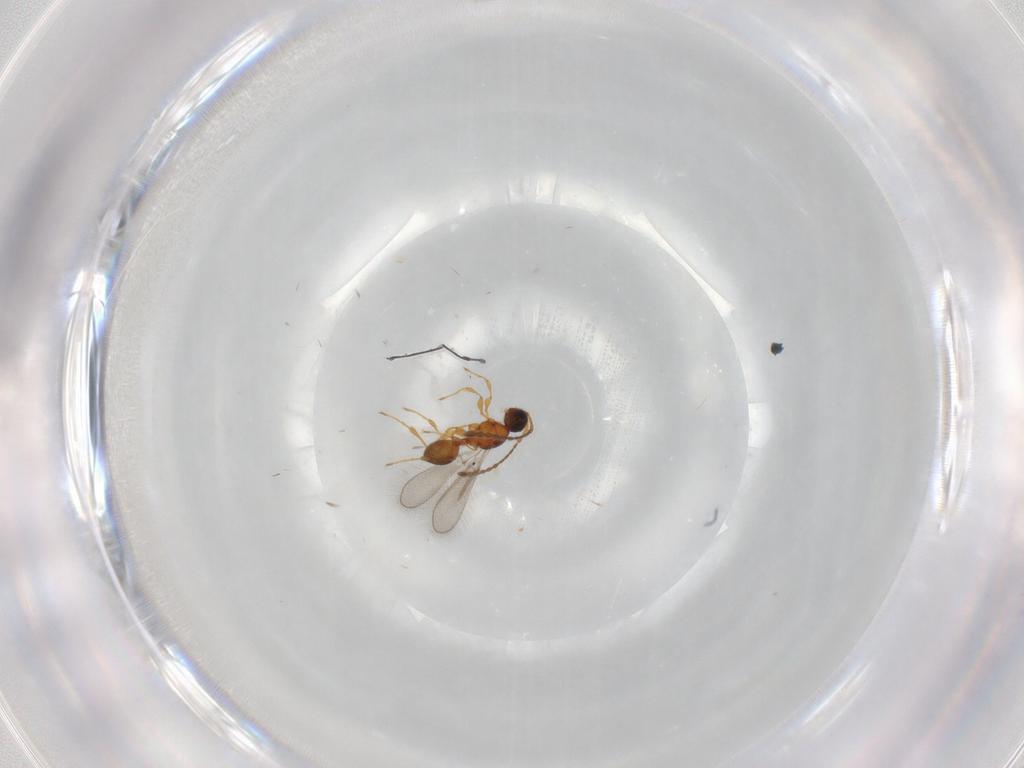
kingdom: Animalia
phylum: Arthropoda
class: Insecta
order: Hymenoptera
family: Diapriidae
